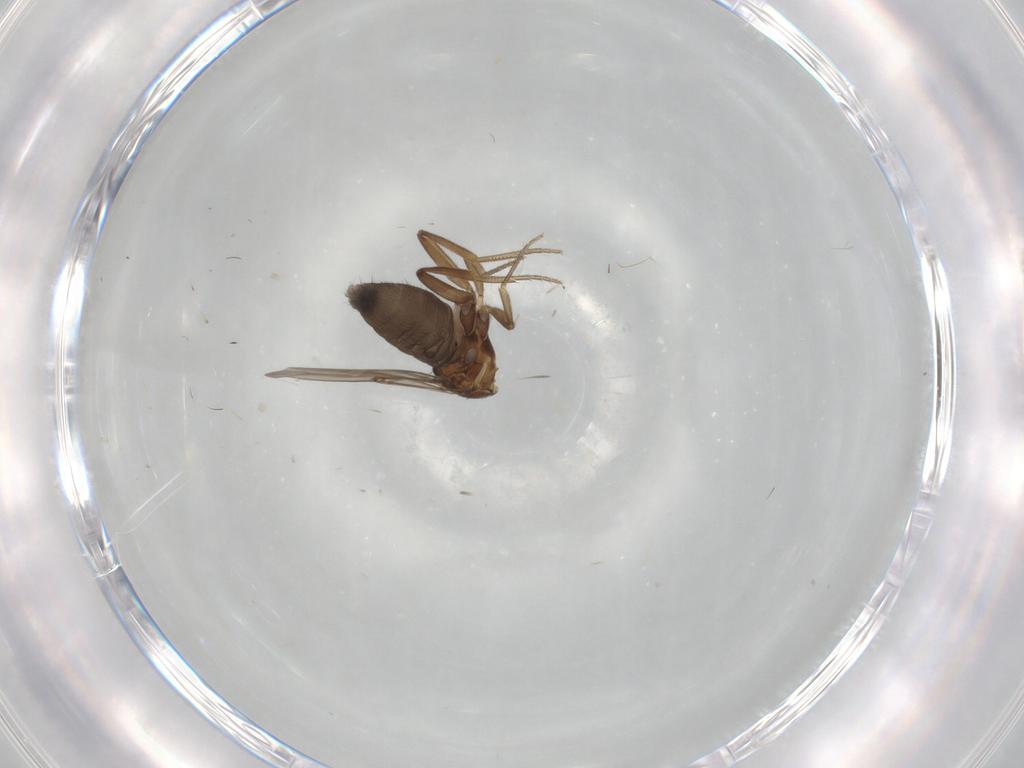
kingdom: Animalia
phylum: Arthropoda
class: Insecta
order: Diptera
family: Phoridae
